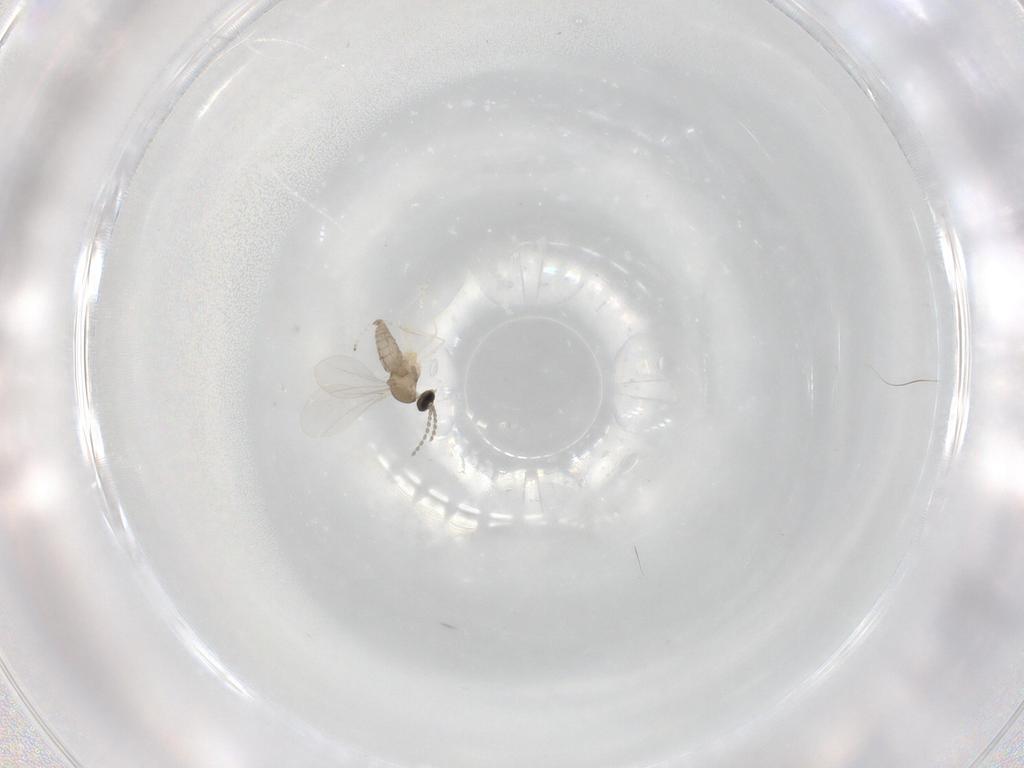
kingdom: Animalia
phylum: Arthropoda
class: Insecta
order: Diptera
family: Cecidomyiidae
